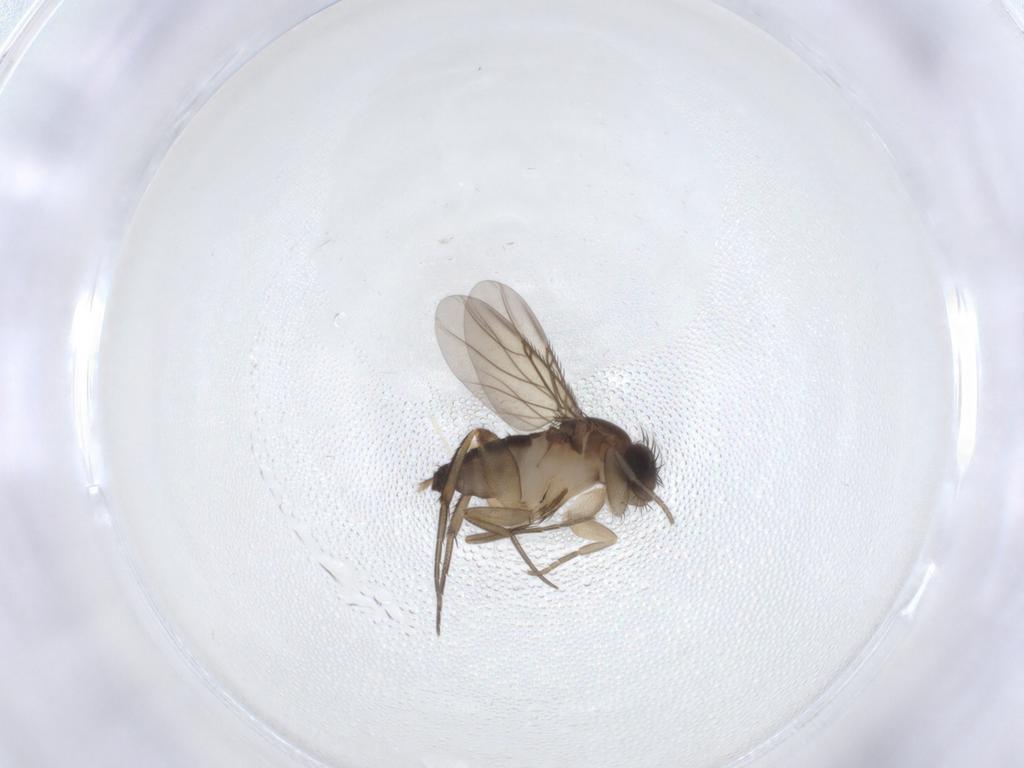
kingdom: Animalia
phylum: Arthropoda
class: Insecta
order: Diptera
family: Phoridae
